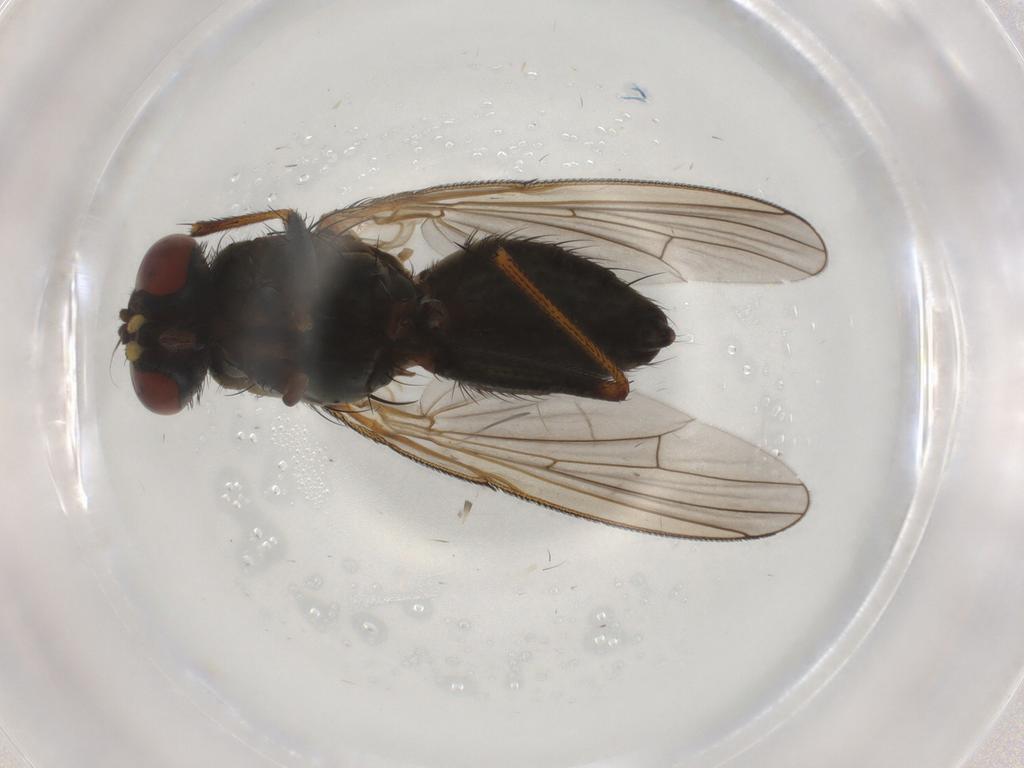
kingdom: Animalia
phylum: Arthropoda
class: Insecta
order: Diptera
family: Muscidae
